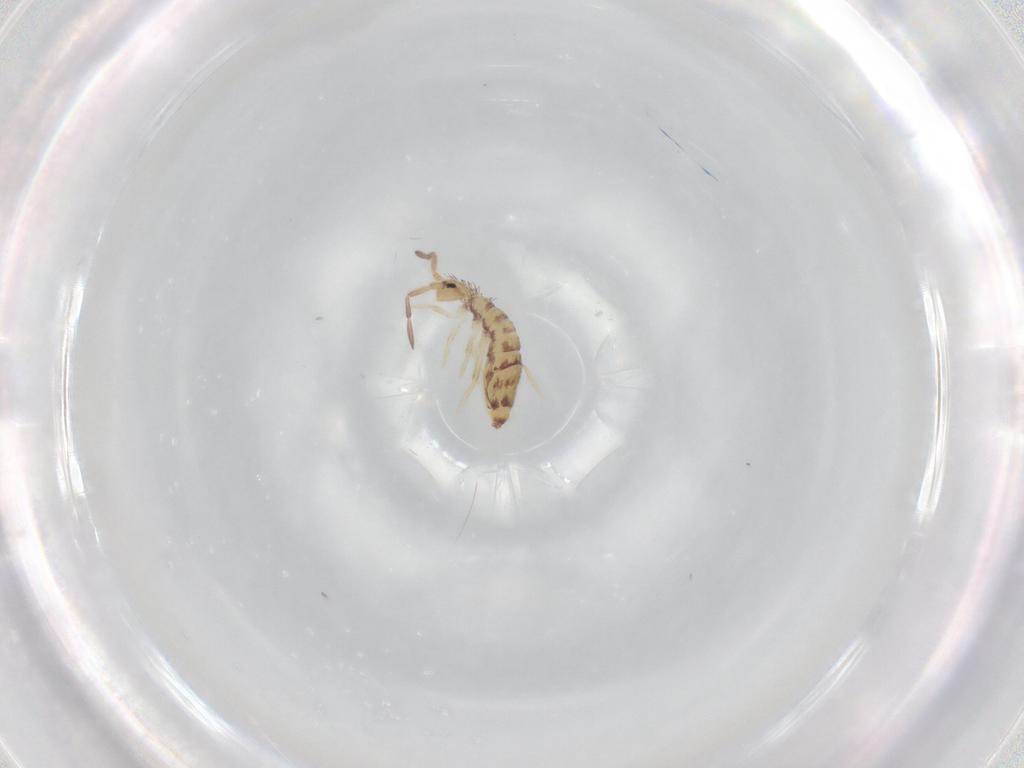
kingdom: Animalia
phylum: Arthropoda
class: Collembola
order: Entomobryomorpha
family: Entomobryidae
